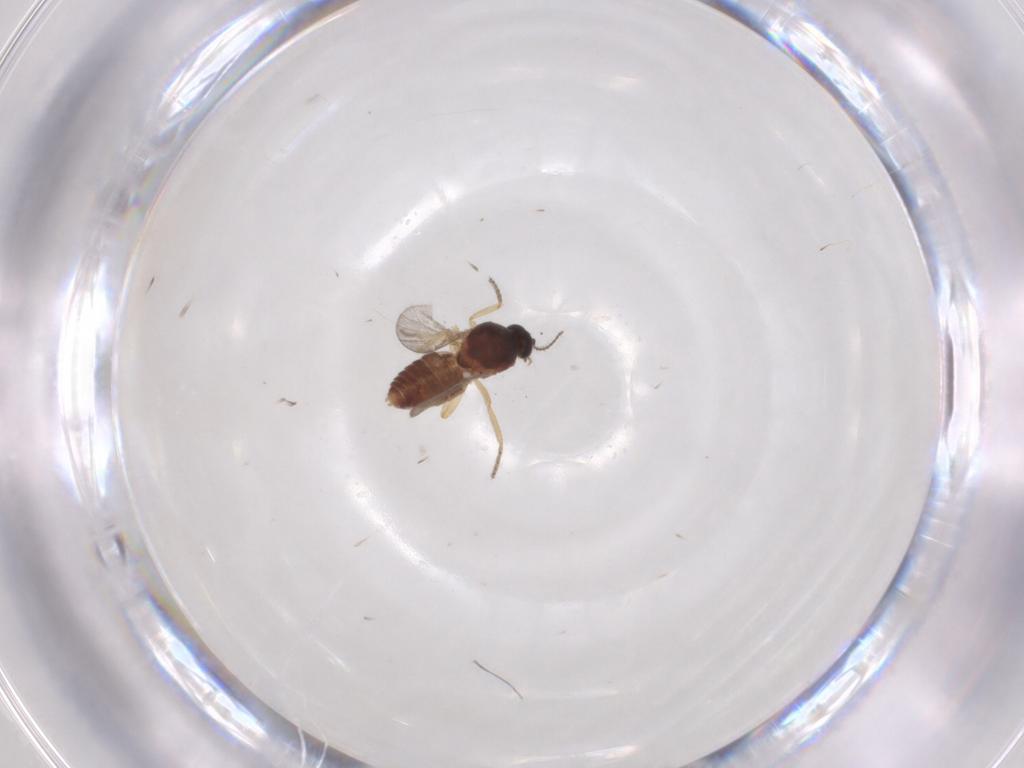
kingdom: Animalia
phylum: Arthropoda
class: Insecta
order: Diptera
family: Ceratopogonidae
